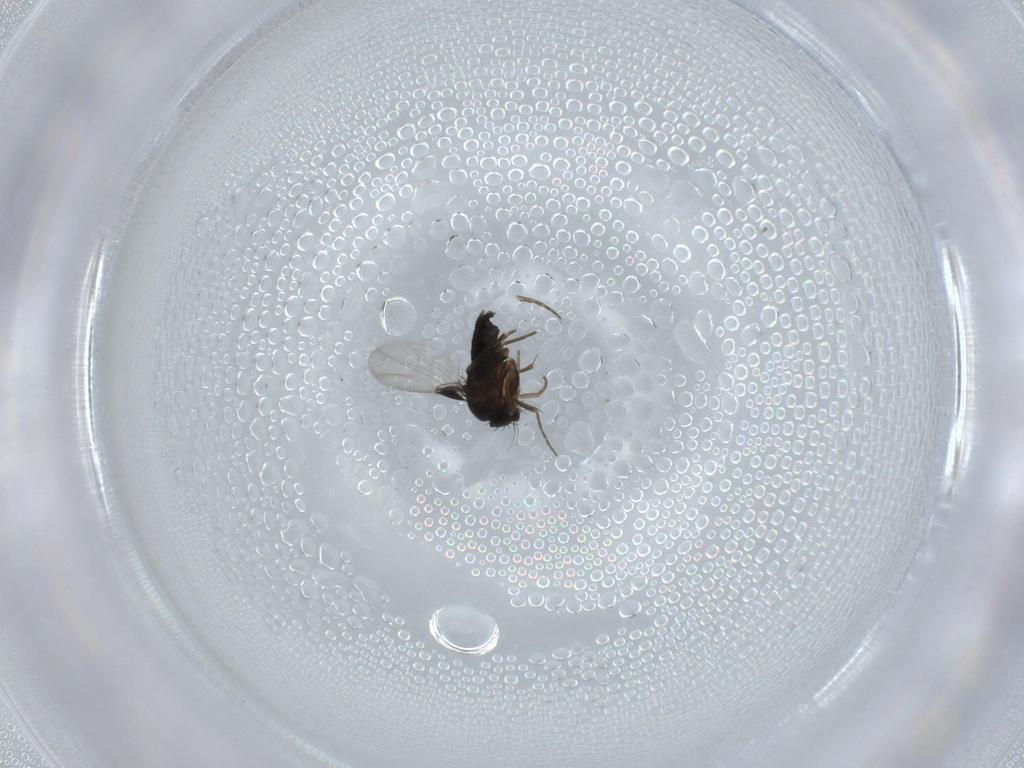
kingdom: Animalia
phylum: Arthropoda
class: Insecta
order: Diptera
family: Phoridae
